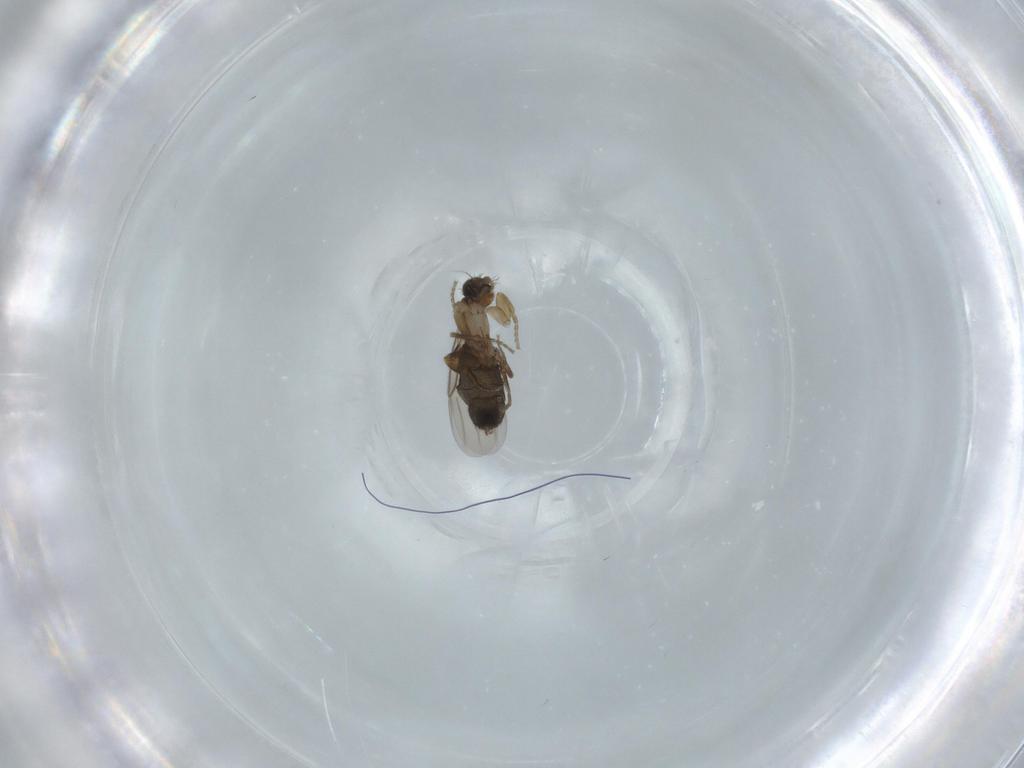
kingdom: Animalia
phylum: Arthropoda
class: Insecta
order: Diptera
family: Phoridae
